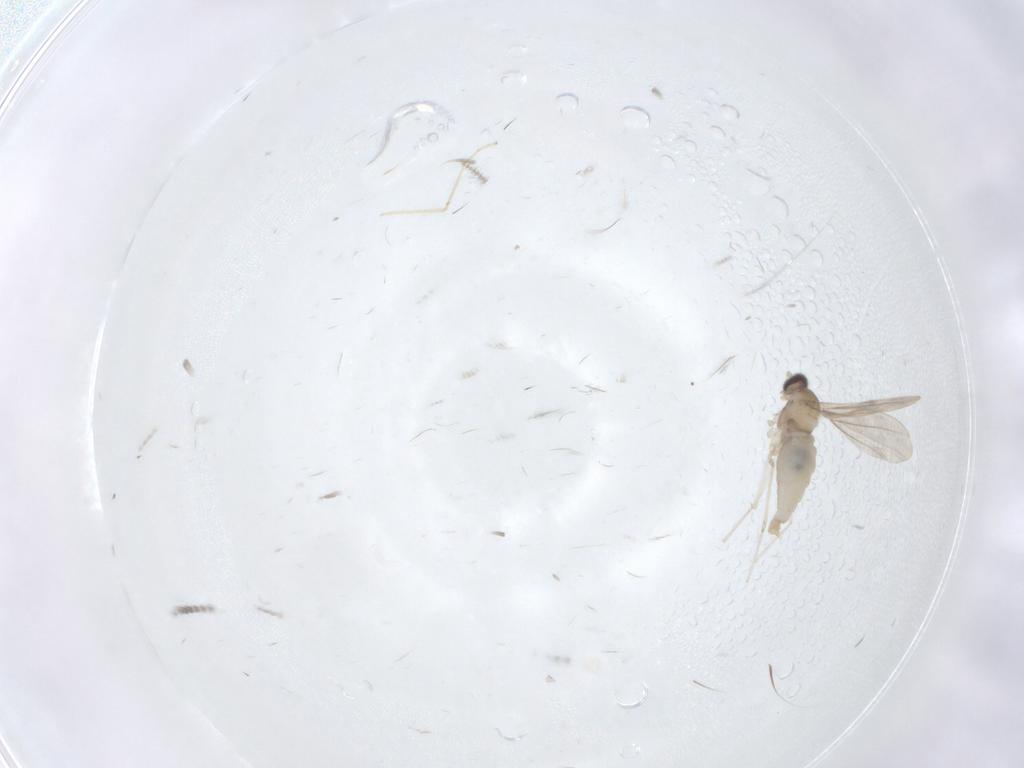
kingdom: Animalia
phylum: Arthropoda
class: Insecta
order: Diptera
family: Cecidomyiidae
